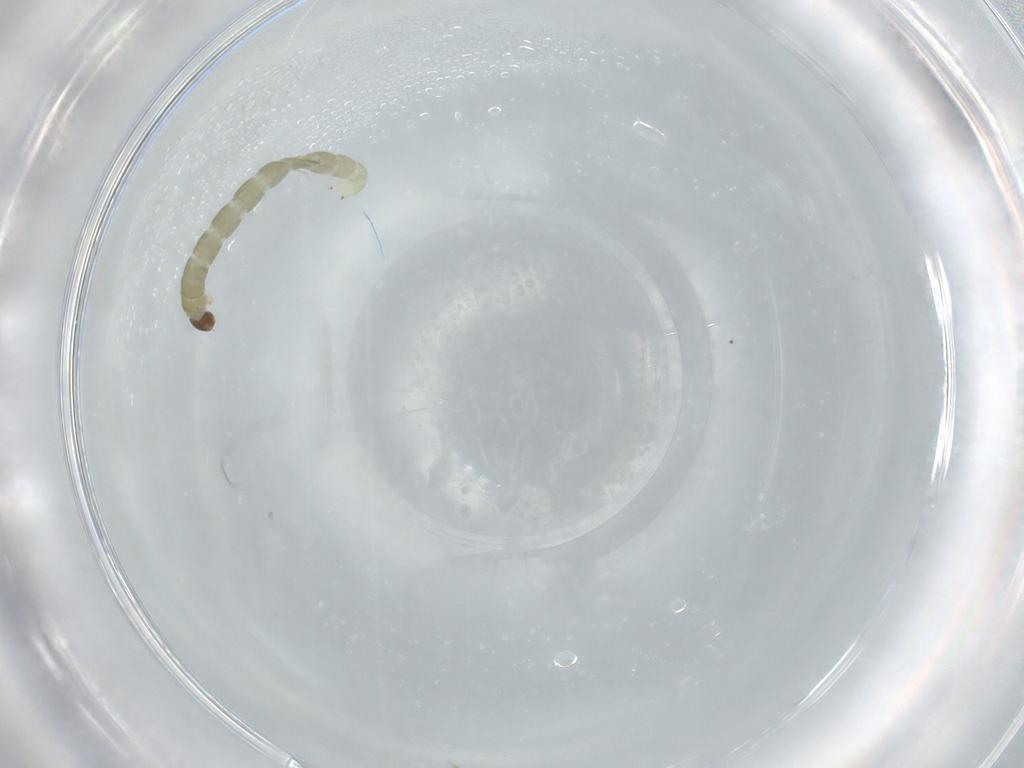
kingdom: Animalia
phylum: Arthropoda
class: Insecta
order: Diptera
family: Chironomidae
